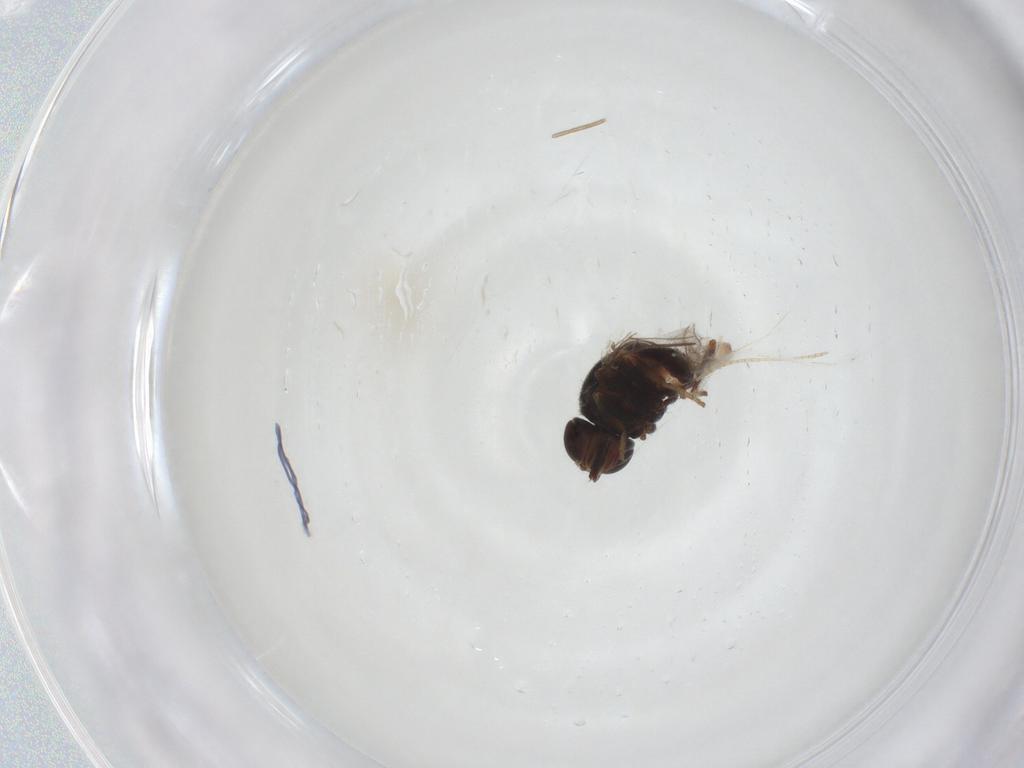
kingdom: Animalia
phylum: Arthropoda
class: Insecta
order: Diptera
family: Chloropidae
